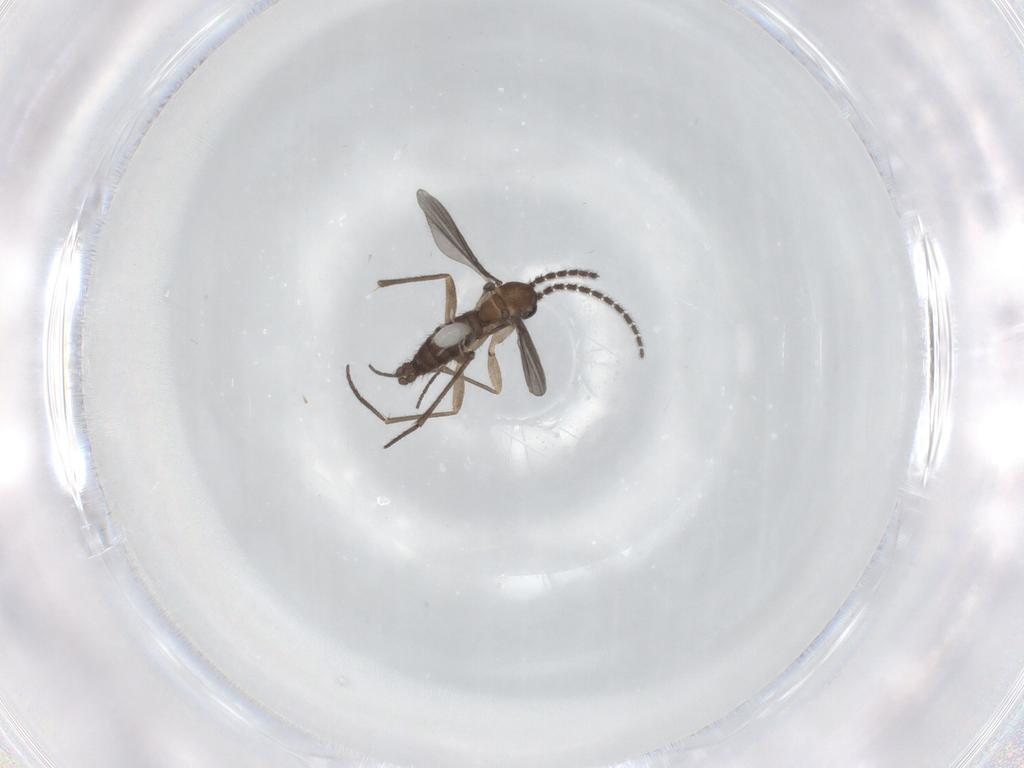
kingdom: Animalia
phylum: Arthropoda
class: Insecta
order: Diptera
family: Sciaridae
